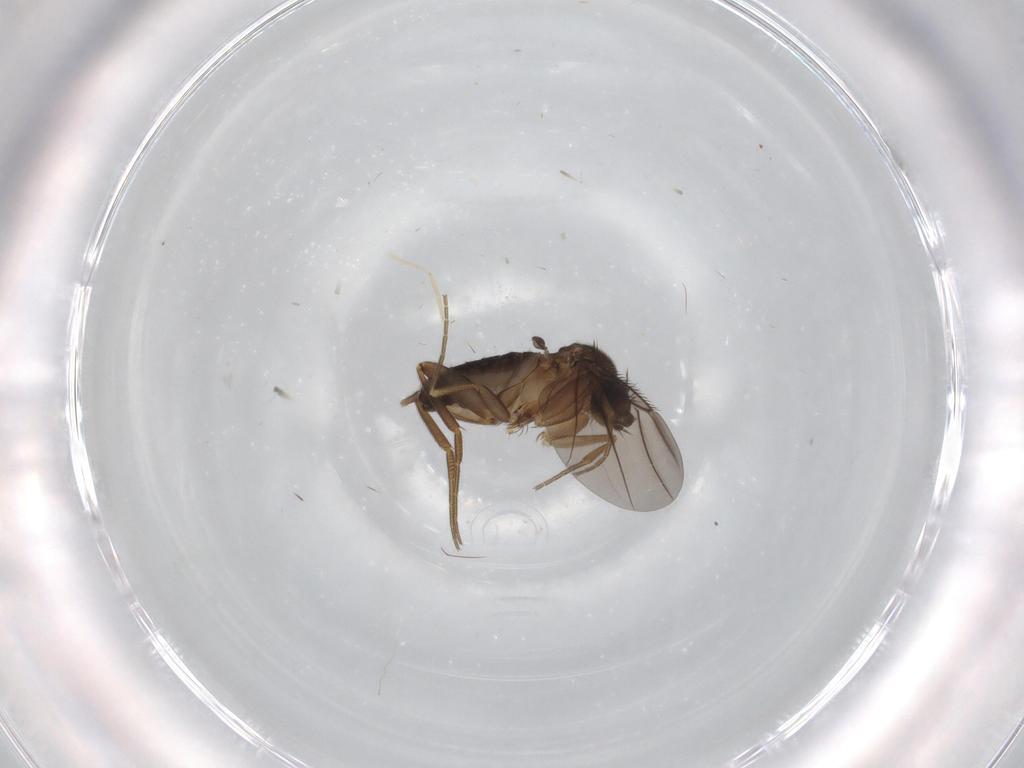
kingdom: Animalia
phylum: Arthropoda
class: Insecta
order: Diptera
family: Phoridae
